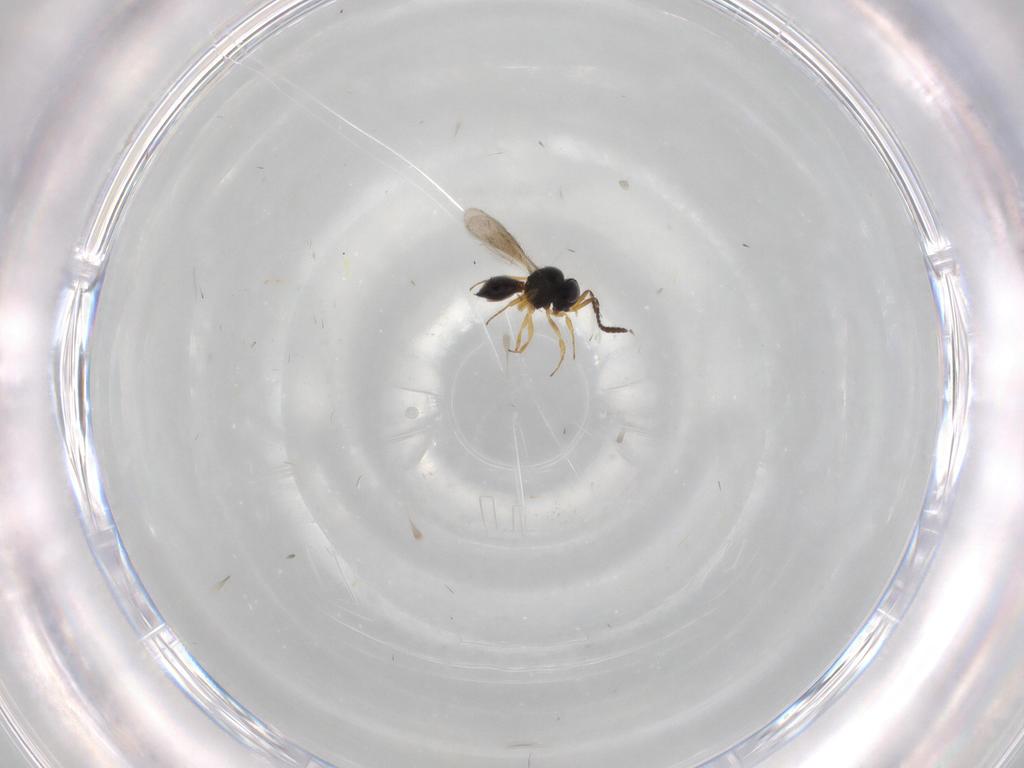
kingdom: Animalia
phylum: Arthropoda
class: Insecta
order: Hymenoptera
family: Scelionidae
